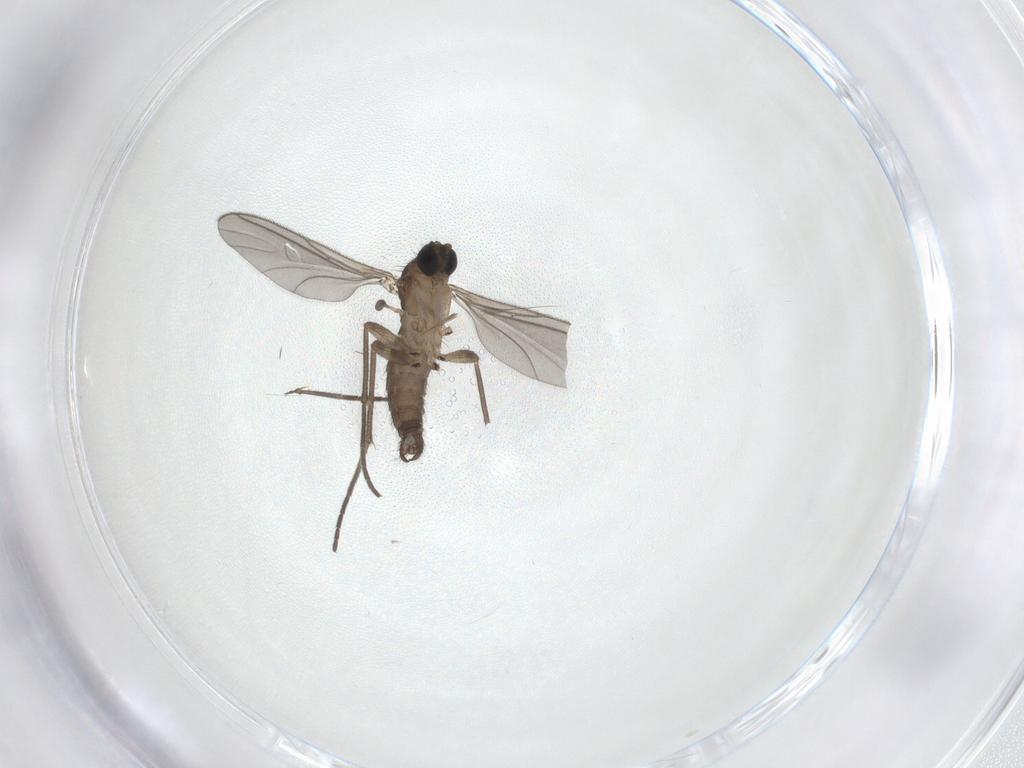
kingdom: Animalia
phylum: Arthropoda
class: Insecta
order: Diptera
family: Sciaridae
